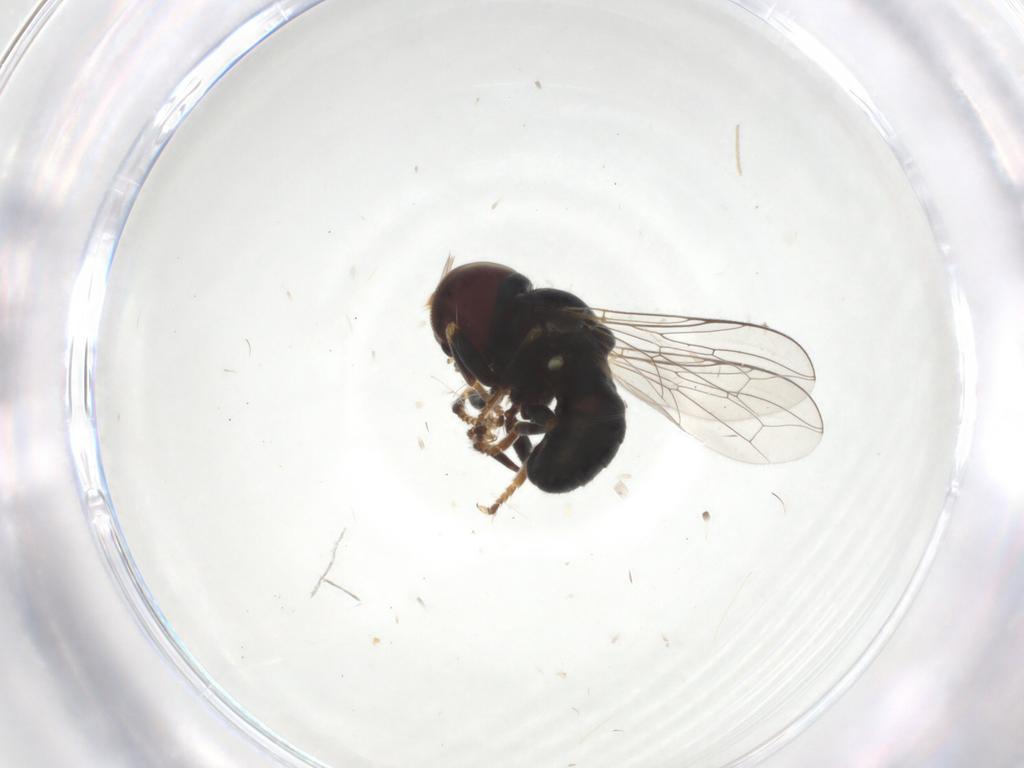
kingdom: Animalia
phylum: Arthropoda
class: Insecta
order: Diptera
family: Pipunculidae
